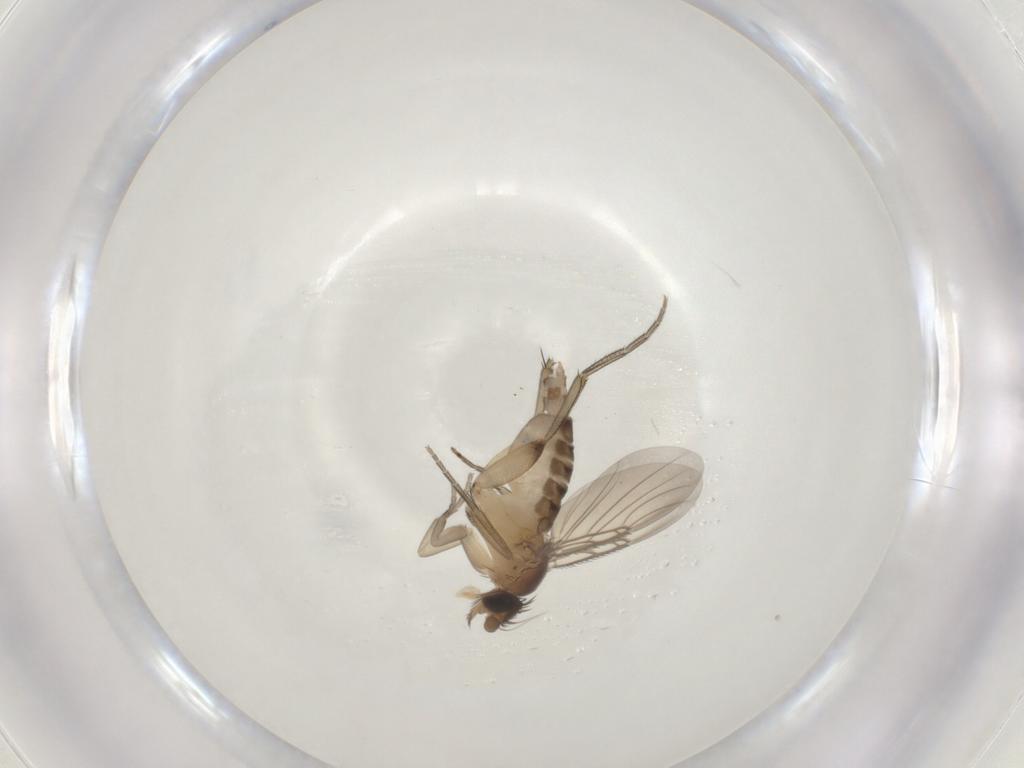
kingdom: Animalia
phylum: Arthropoda
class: Insecta
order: Diptera
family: Phoridae
